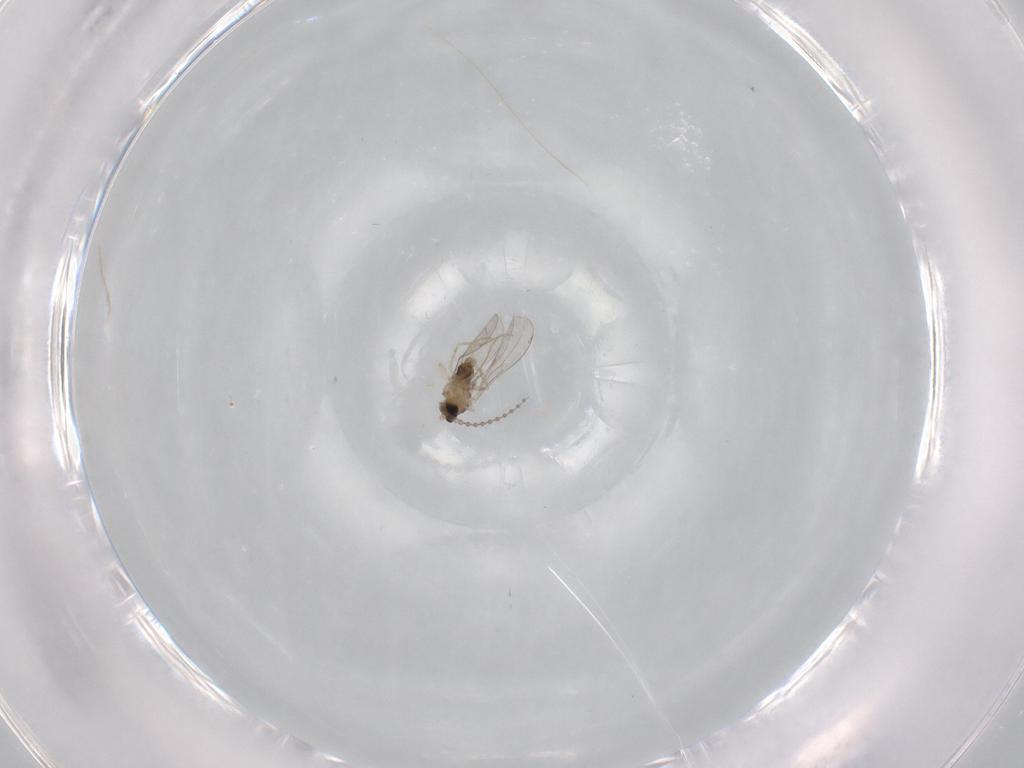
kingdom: Animalia
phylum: Arthropoda
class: Insecta
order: Diptera
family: Cecidomyiidae
